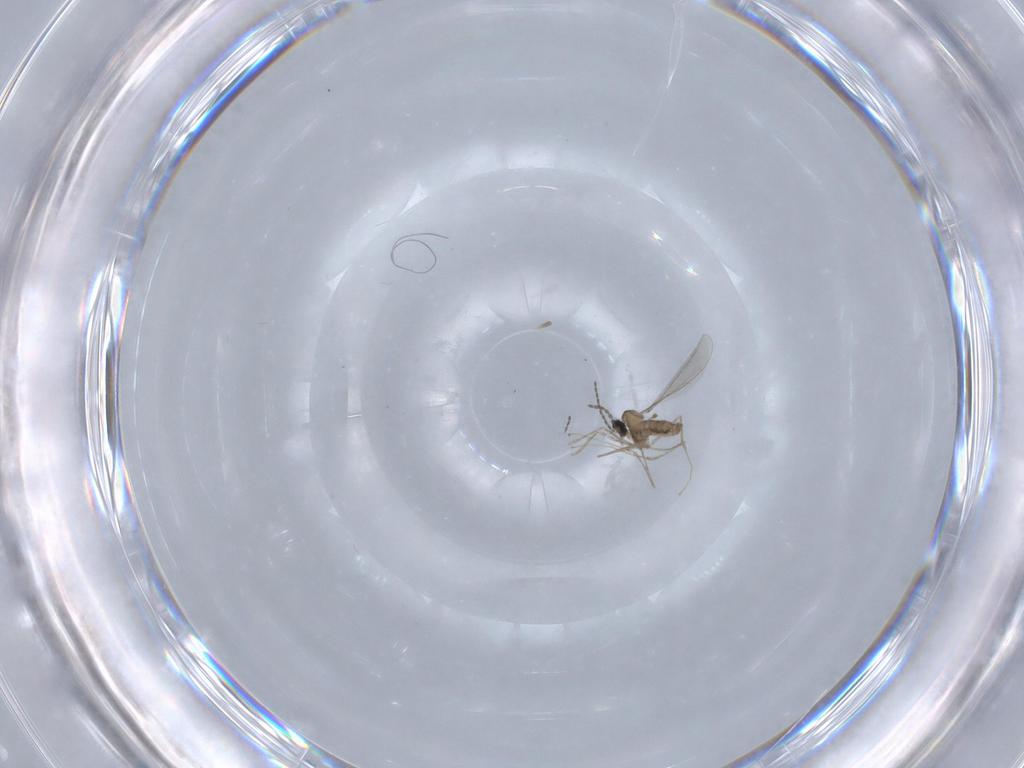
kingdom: Animalia
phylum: Arthropoda
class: Insecta
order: Diptera
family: Cecidomyiidae
